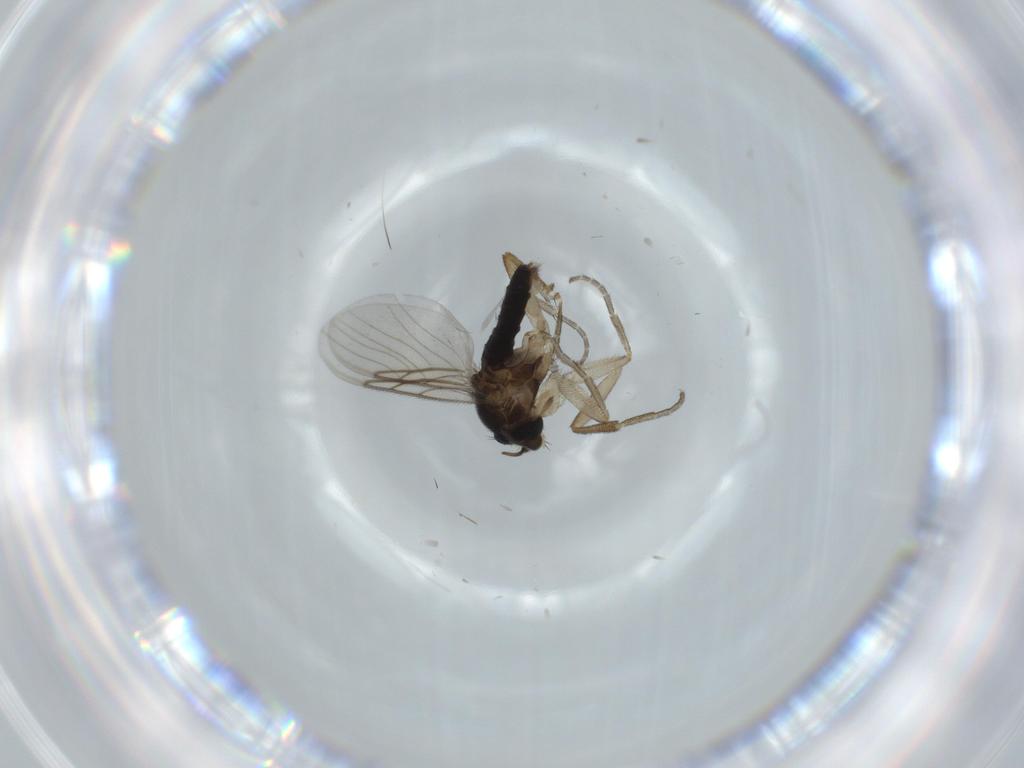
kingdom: Animalia
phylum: Arthropoda
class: Insecta
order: Diptera
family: Phoridae
